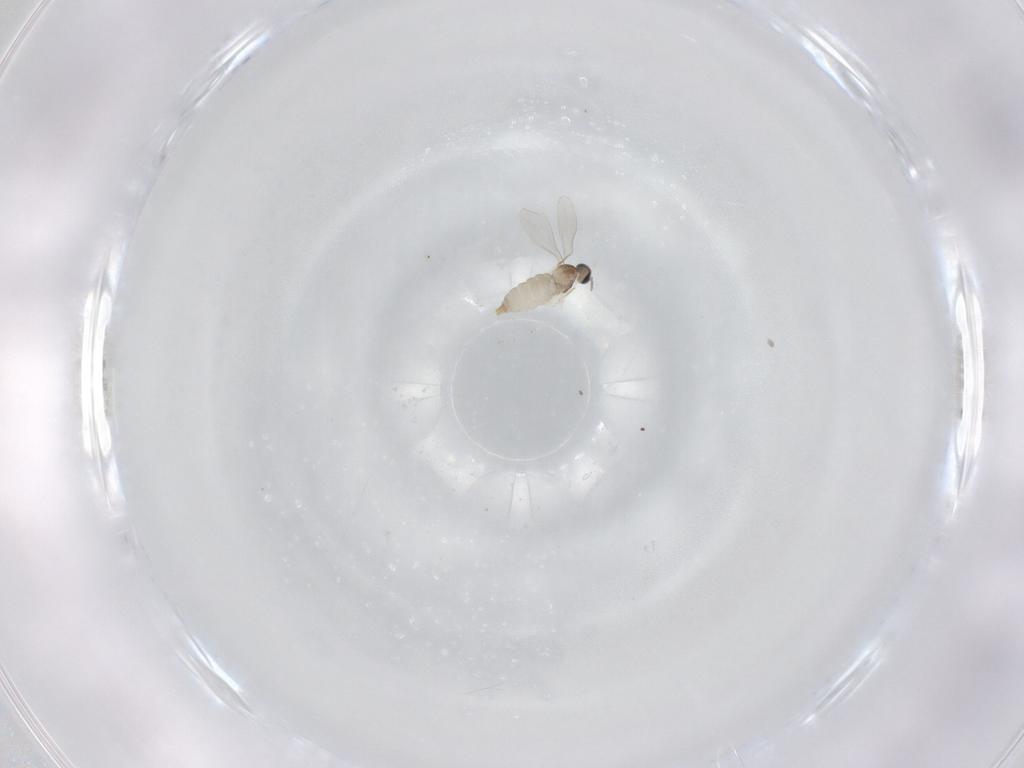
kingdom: Animalia
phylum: Arthropoda
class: Insecta
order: Diptera
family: Cecidomyiidae
